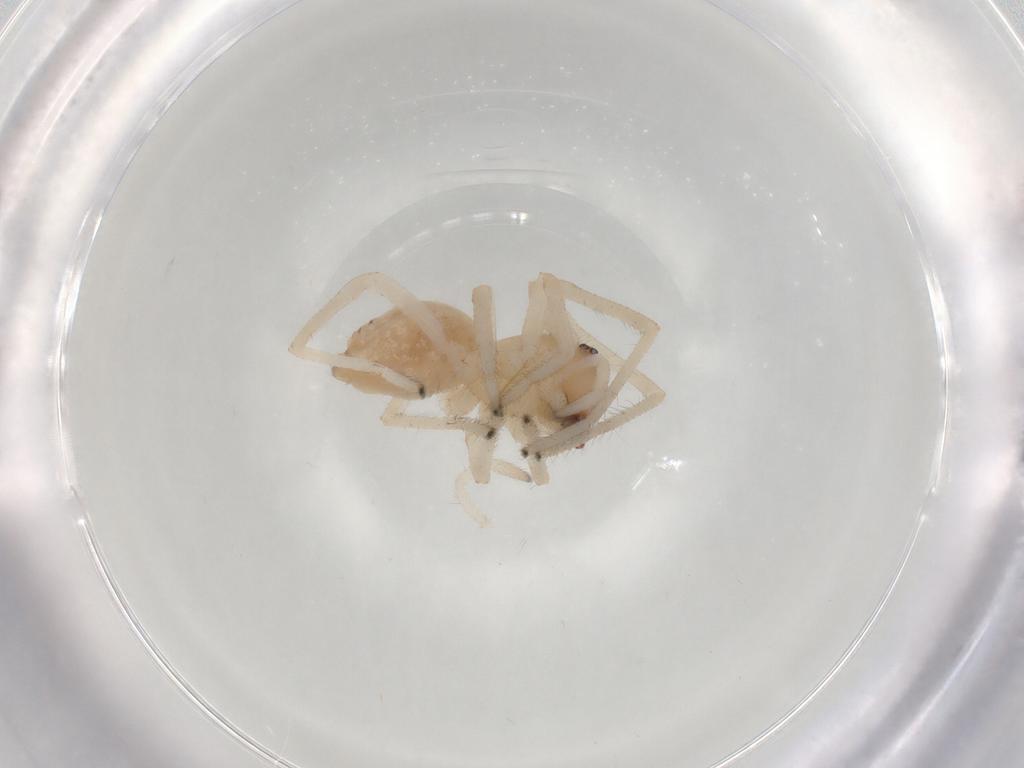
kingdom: Animalia
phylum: Arthropoda
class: Arachnida
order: Araneae
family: Cheiracanthiidae
